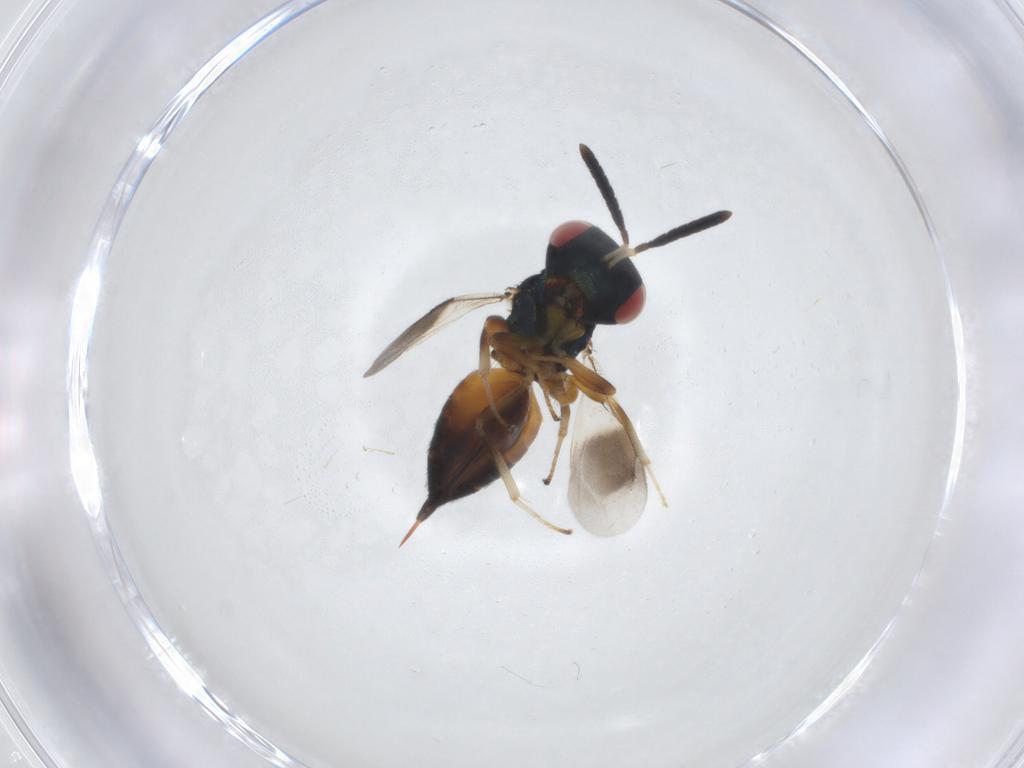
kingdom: Animalia
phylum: Arthropoda
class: Insecta
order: Hymenoptera
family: Pteromalidae
